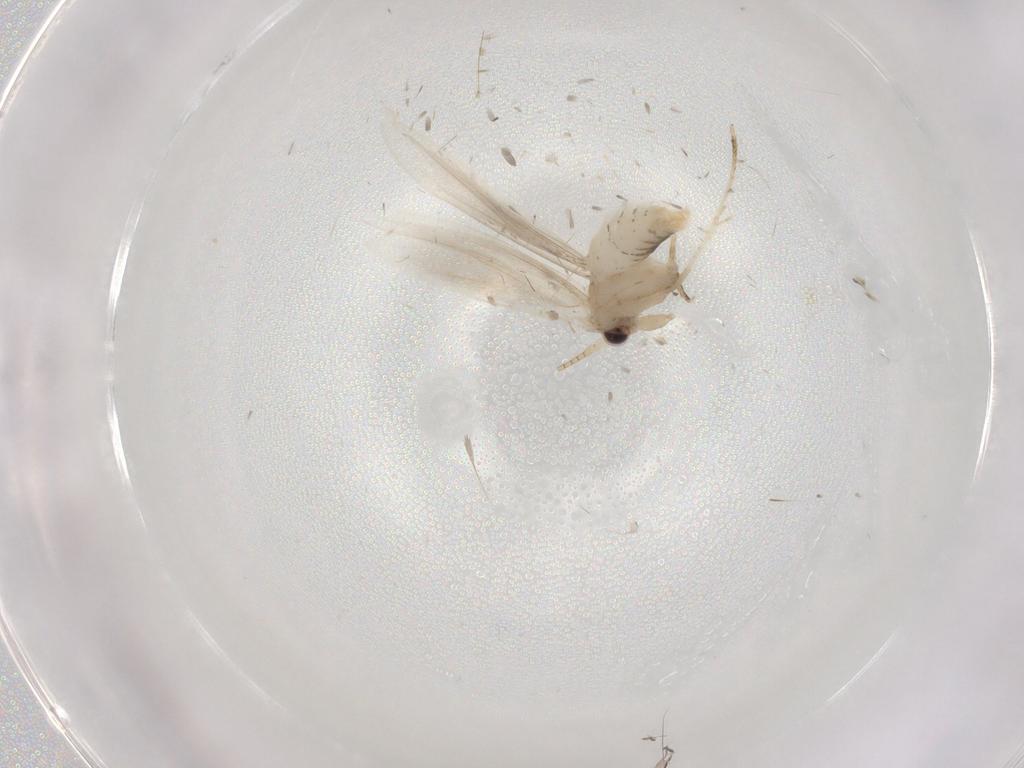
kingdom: Animalia
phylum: Arthropoda
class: Insecta
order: Lepidoptera
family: Tineidae
